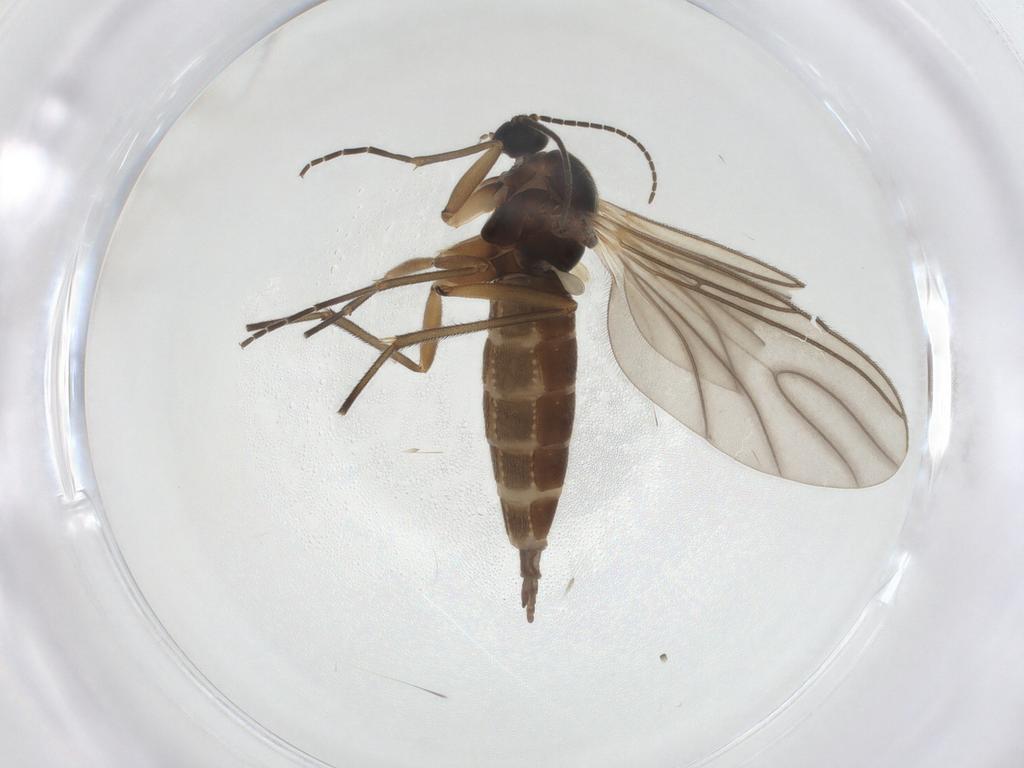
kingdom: Animalia
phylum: Arthropoda
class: Insecta
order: Diptera
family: Sciaridae
